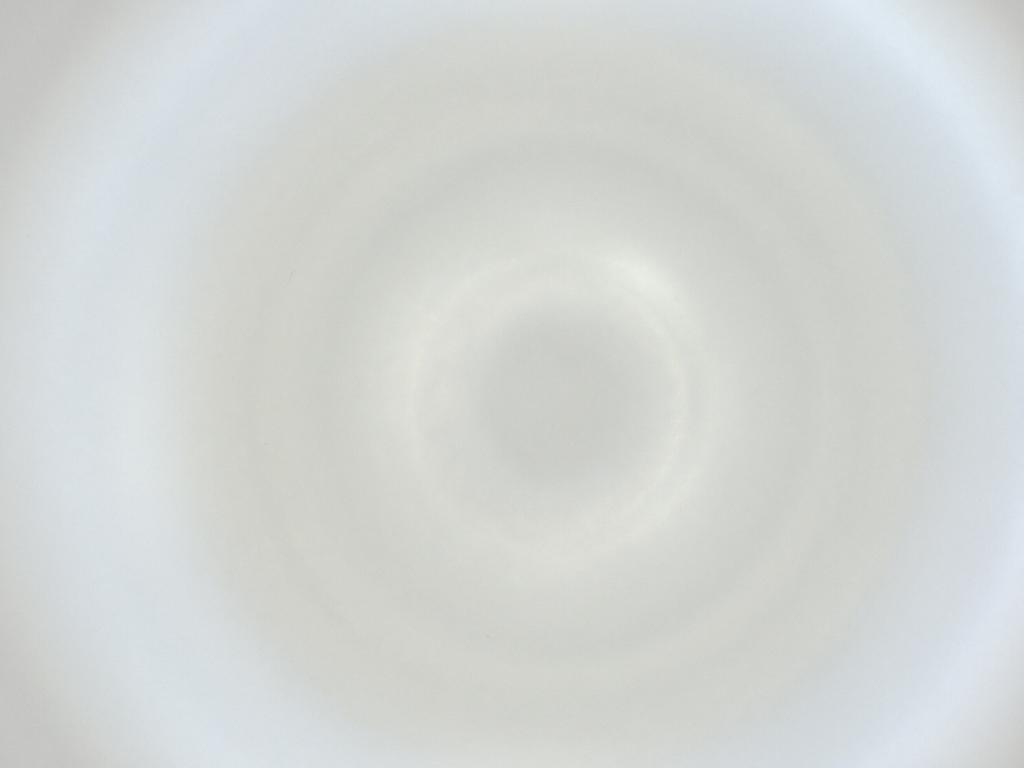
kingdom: Animalia
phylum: Arthropoda
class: Insecta
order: Diptera
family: Cecidomyiidae
